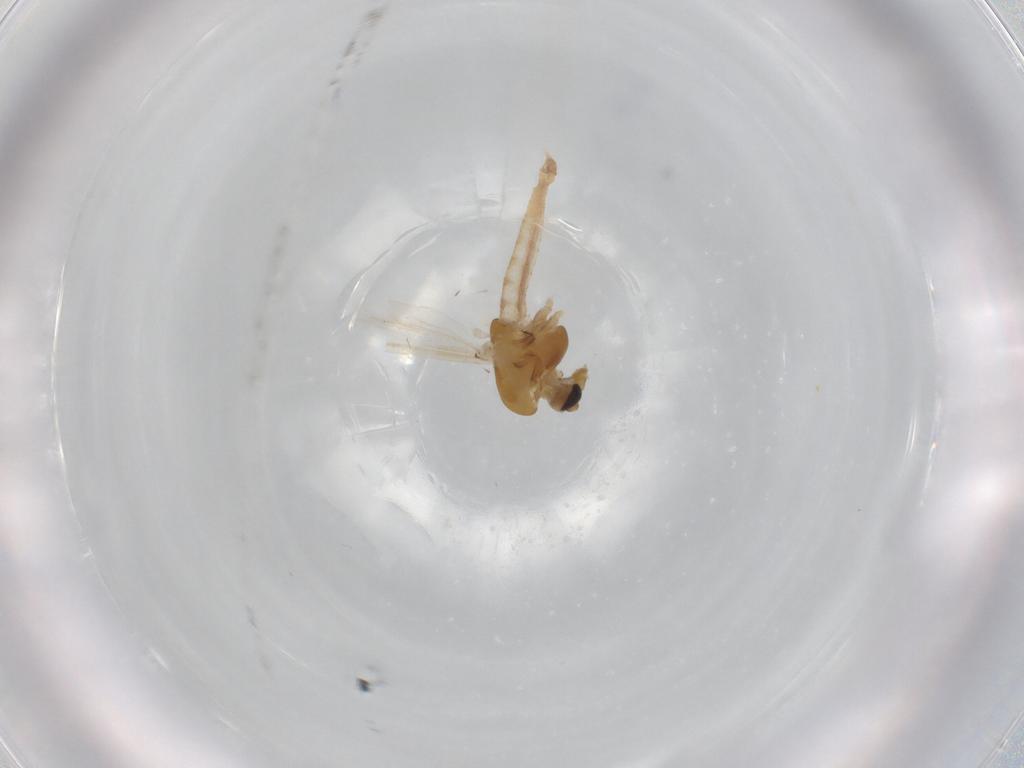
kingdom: Animalia
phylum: Arthropoda
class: Insecta
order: Diptera
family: Chironomidae
